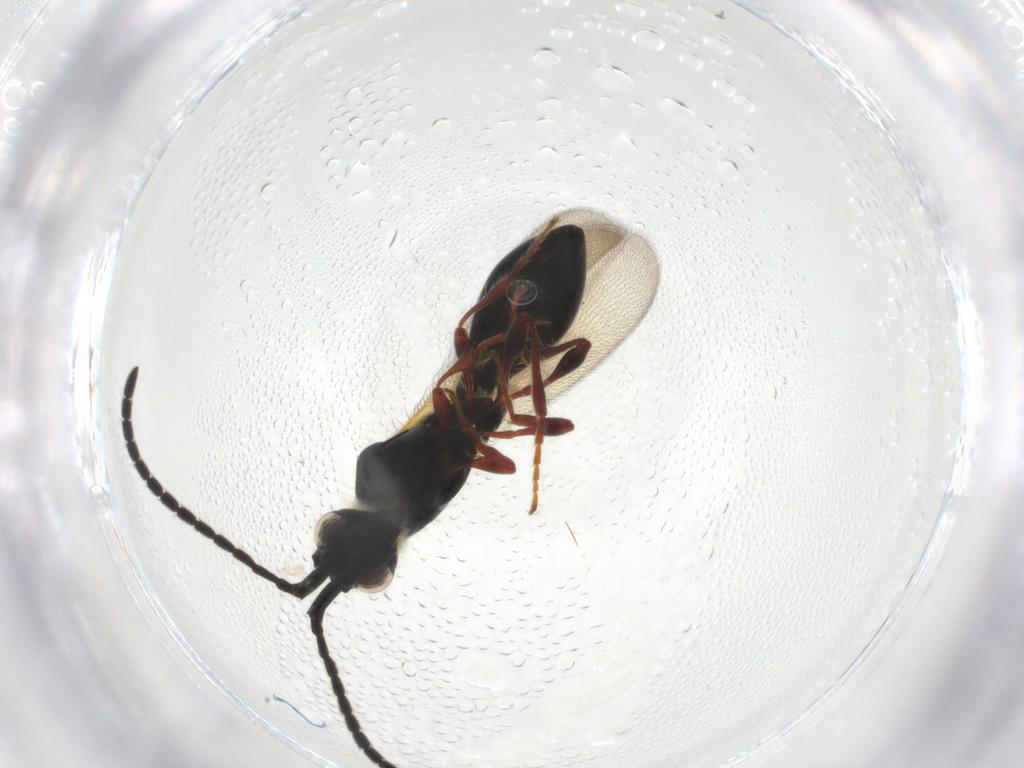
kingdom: Animalia
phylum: Arthropoda
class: Insecta
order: Hymenoptera
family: Diapriidae
